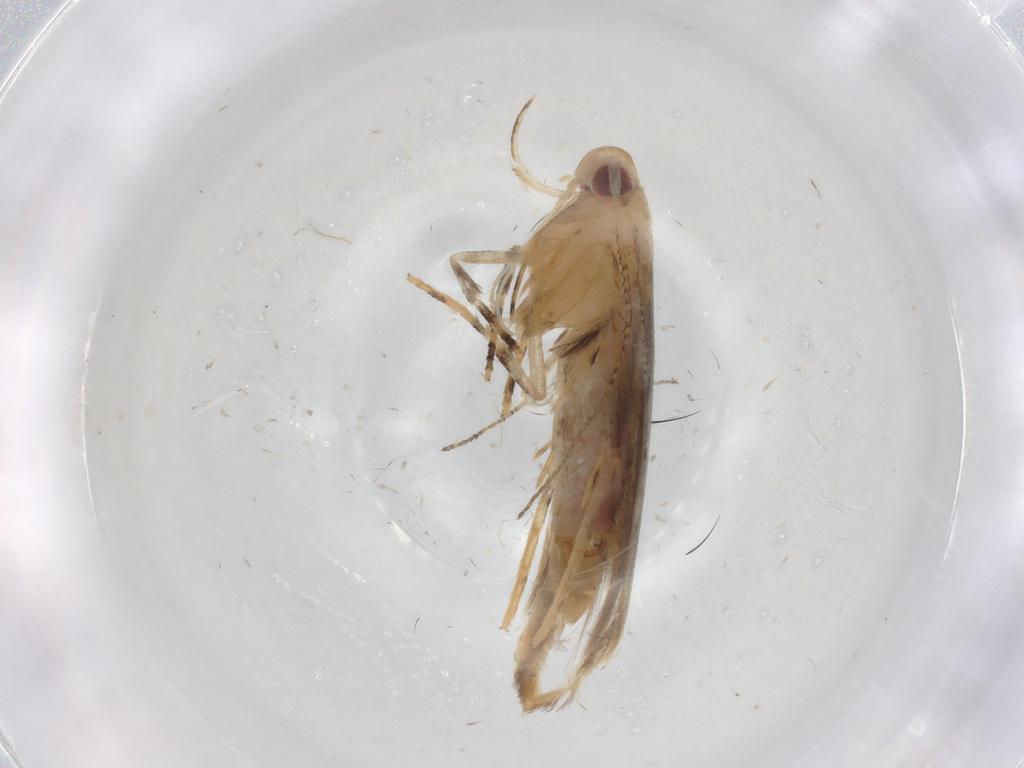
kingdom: Animalia
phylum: Arthropoda
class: Insecta
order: Lepidoptera
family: Cosmopterigidae
